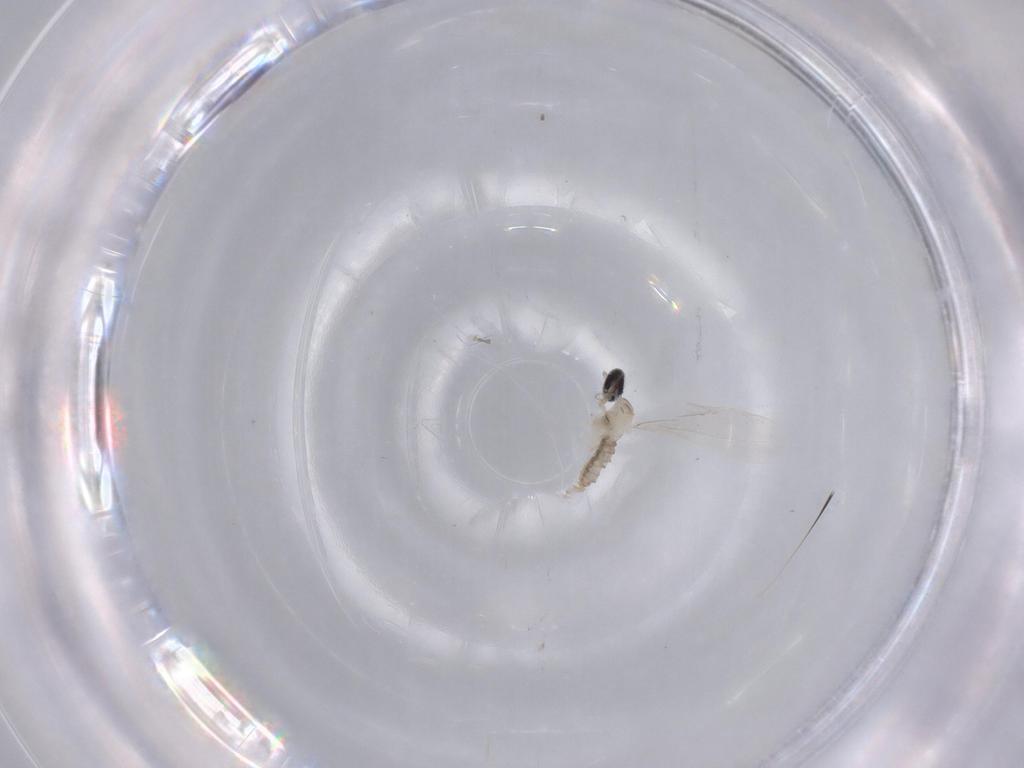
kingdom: Animalia
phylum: Arthropoda
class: Insecta
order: Diptera
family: Cecidomyiidae
